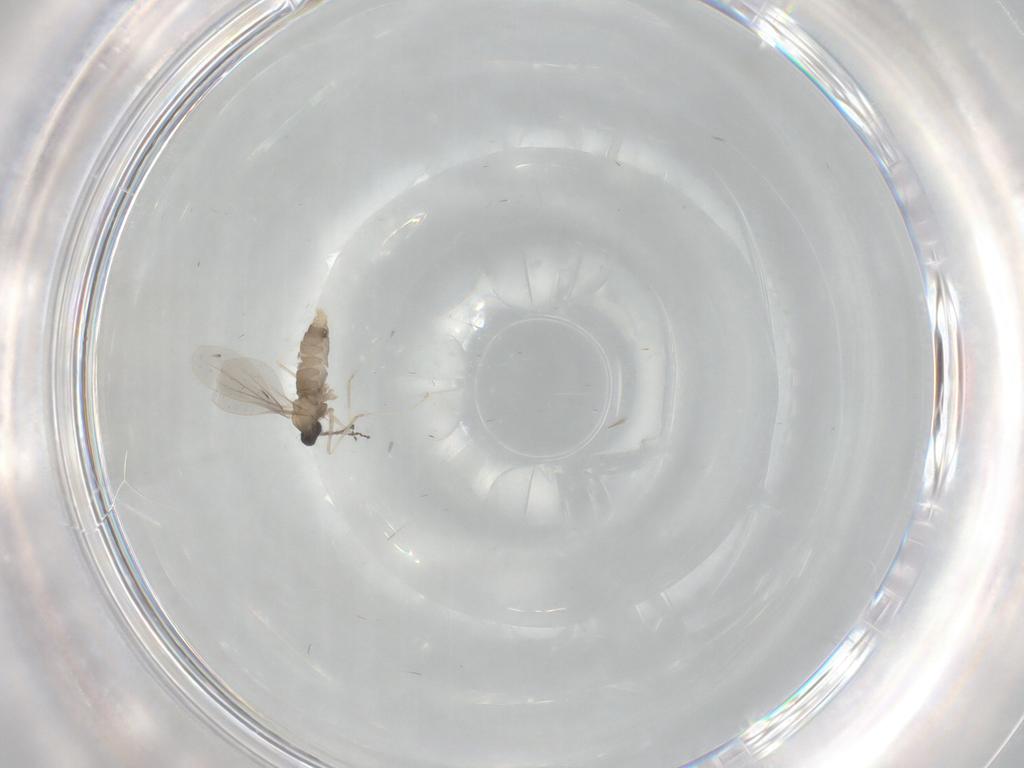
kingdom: Animalia
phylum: Arthropoda
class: Insecta
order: Diptera
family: Cecidomyiidae
